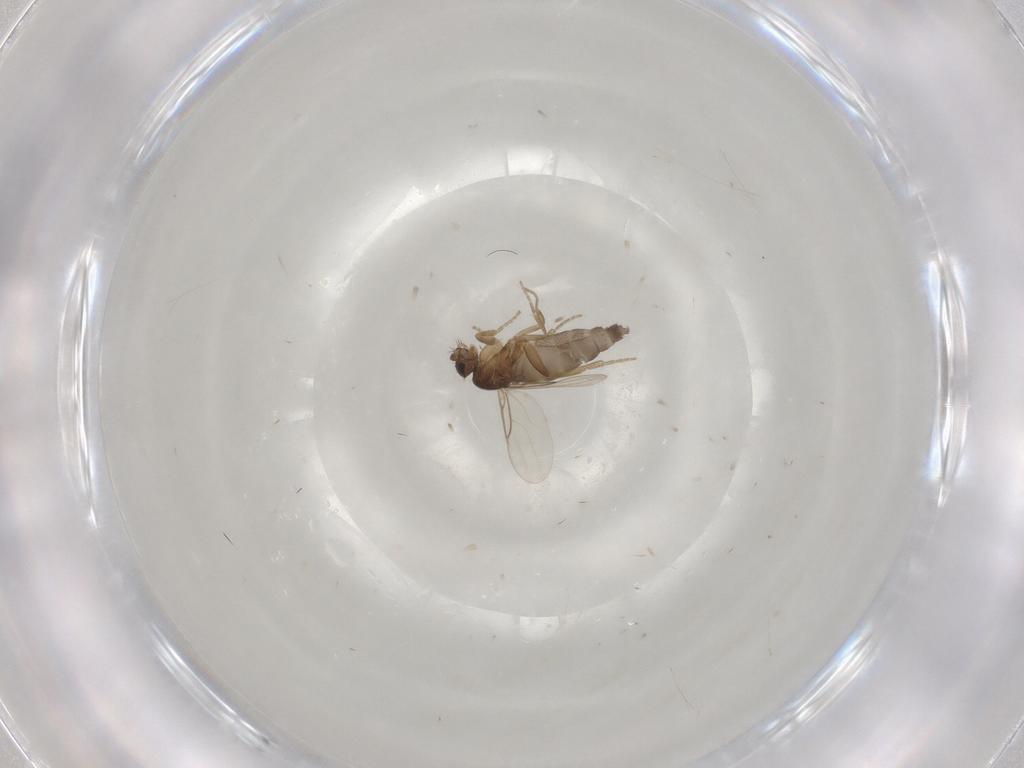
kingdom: Animalia
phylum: Arthropoda
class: Insecta
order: Diptera
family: Phoridae
